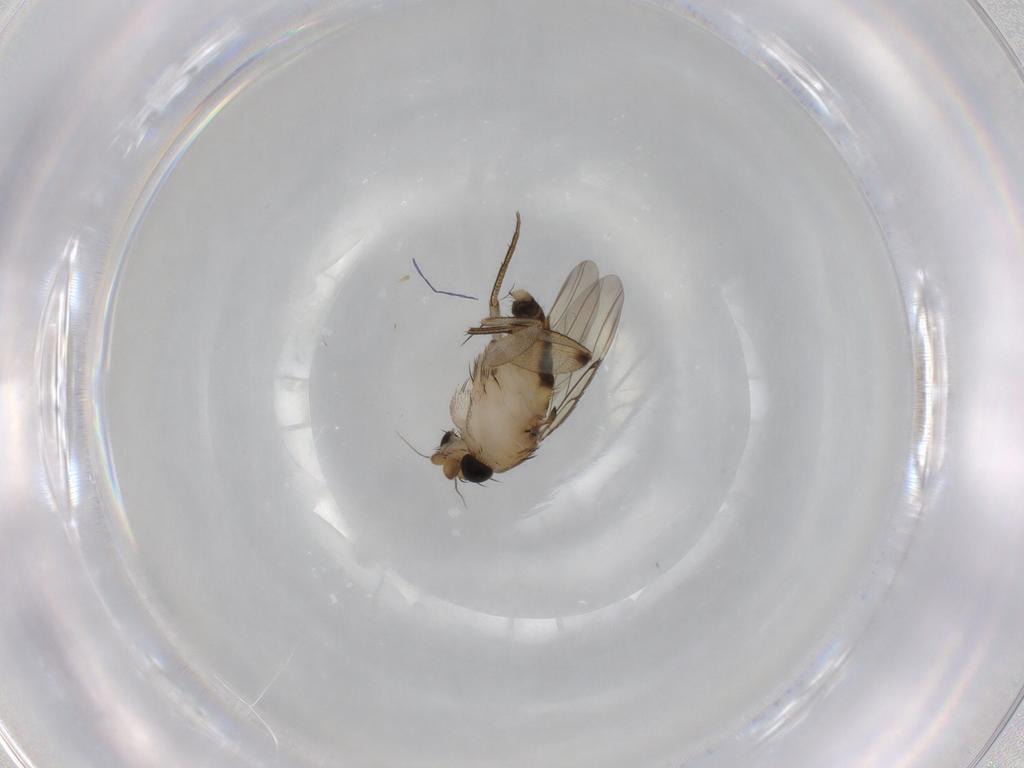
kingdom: Animalia
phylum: Arthropoda
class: Insecta
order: Diptera
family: Phoridae
